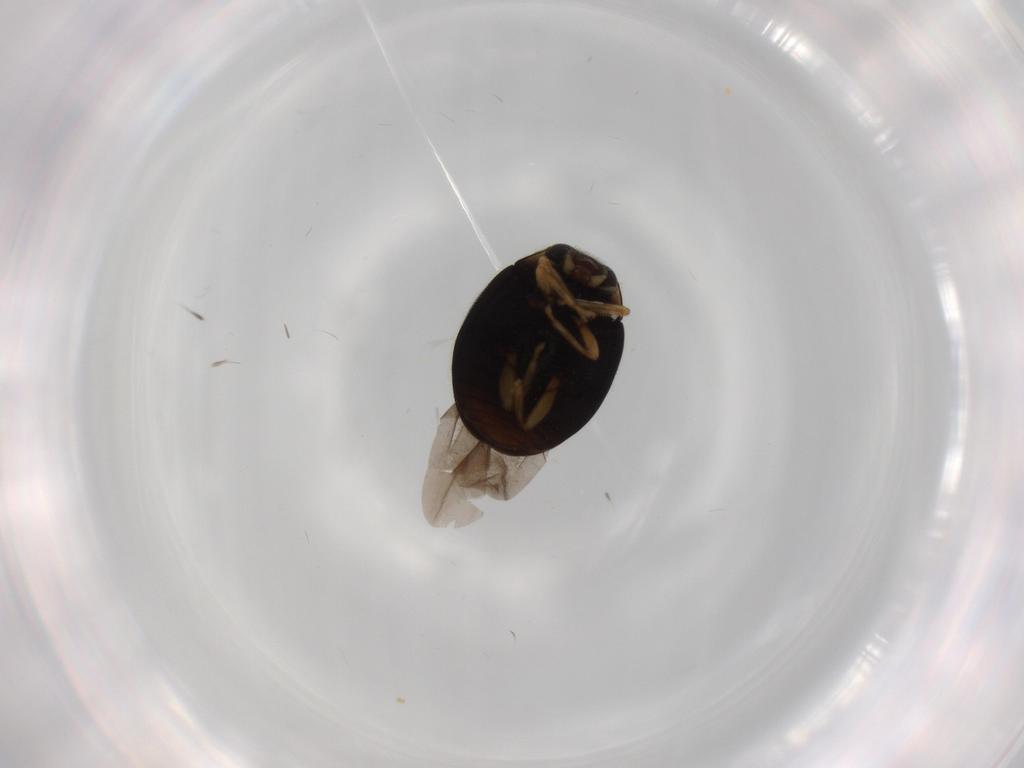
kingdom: Animalia
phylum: Arthropoda
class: Insecta
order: Coleoptera
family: Coccinellidae
